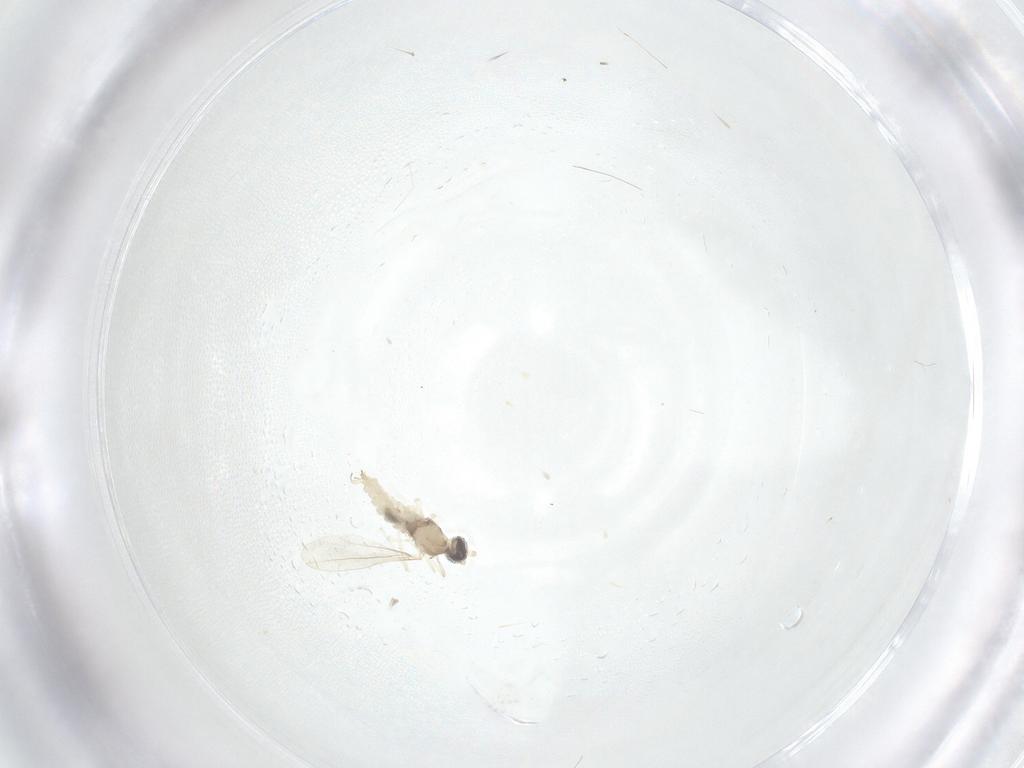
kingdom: Animalia
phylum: Arthropoda
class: Insecta
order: Diptera
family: Cecidomyiidae
